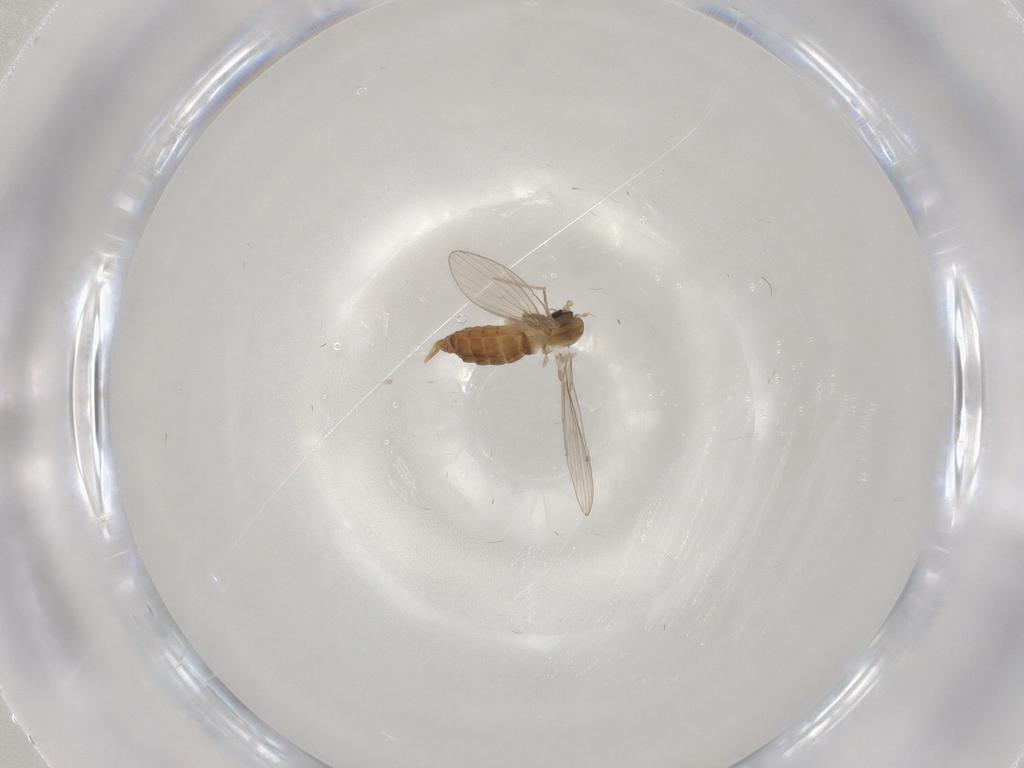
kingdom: Animalia
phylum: Arthropoda
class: Insecta
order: Diptera
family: Psychodidae
